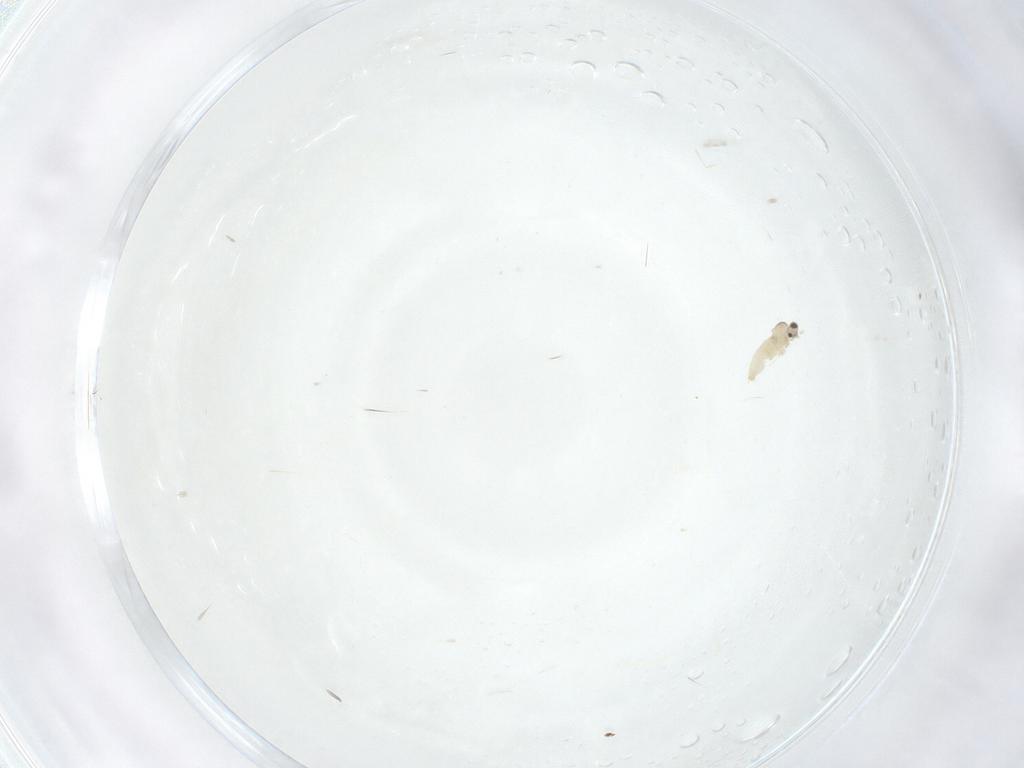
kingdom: Animalia
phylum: Arthropoda
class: Insecta
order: Diptera
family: Cecidomyiidae
